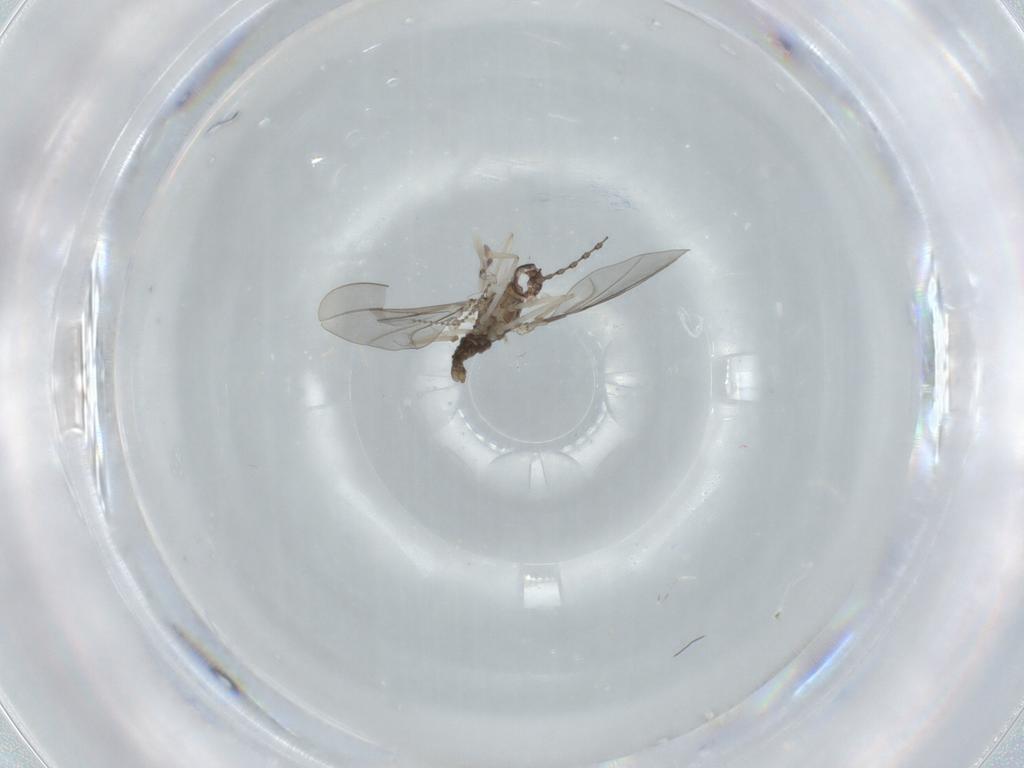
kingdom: Animalia
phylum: Arthropoda
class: Insecta
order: Diptera
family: Cecidomyiidae
